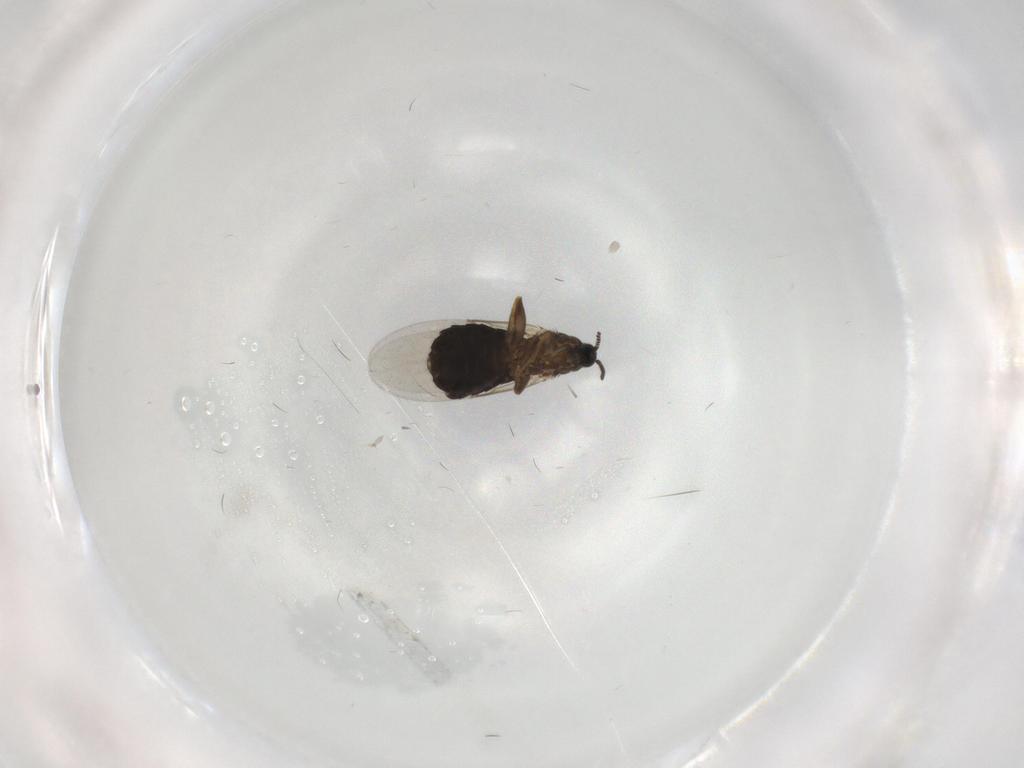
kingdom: Animalia
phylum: Arthropoda
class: Insecta
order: Diptera
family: Scatopsidae
